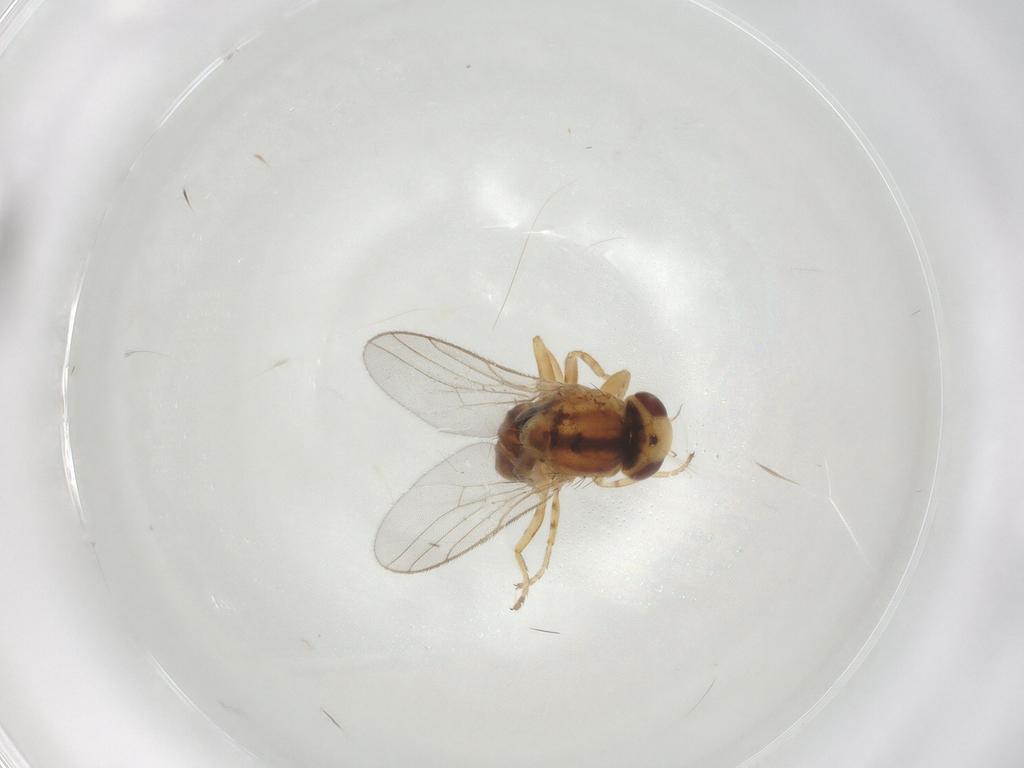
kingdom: Animalia
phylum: Arthropoda
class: Insecta
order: Diptera
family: Chloropidae
